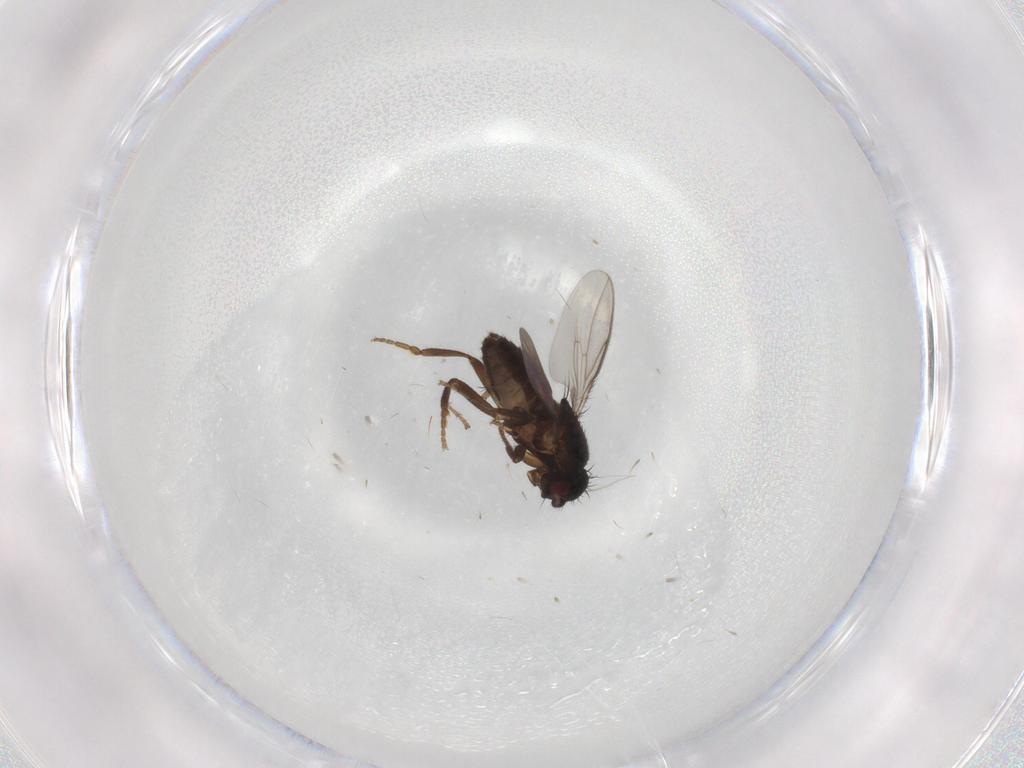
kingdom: Animalia
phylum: Arthropoda
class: Insecta
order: Diptera
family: Sphaeroceridae
